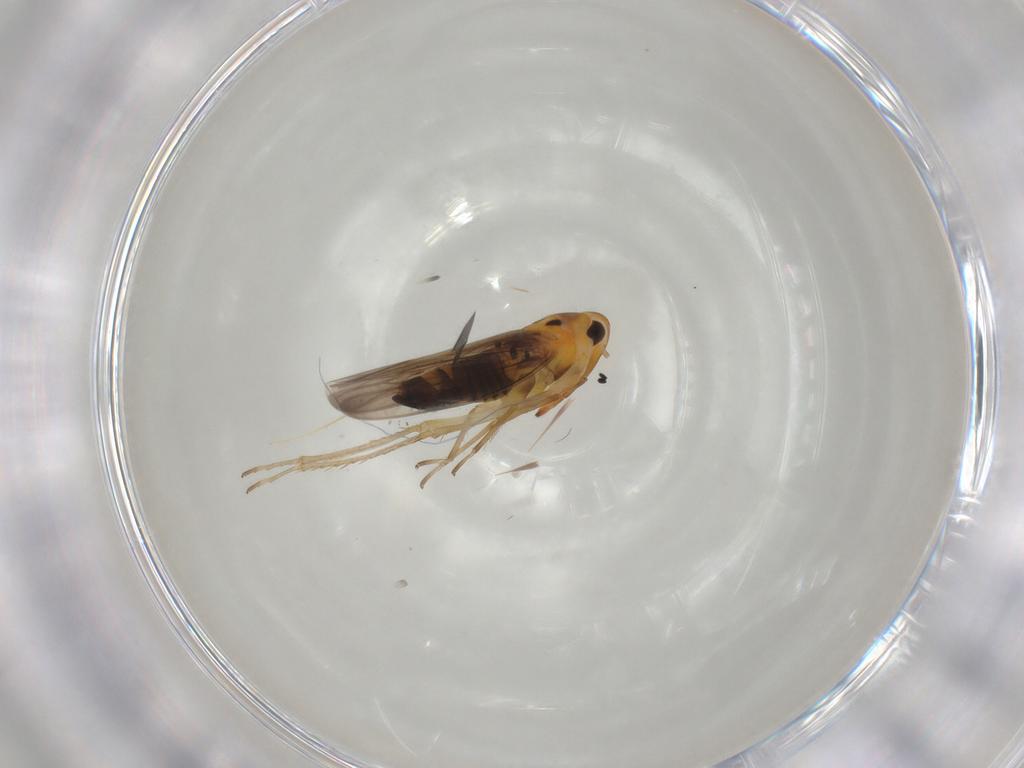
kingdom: Animalia
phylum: Arthropoda
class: Insecta
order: Hemiptera
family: Cicadellidae
